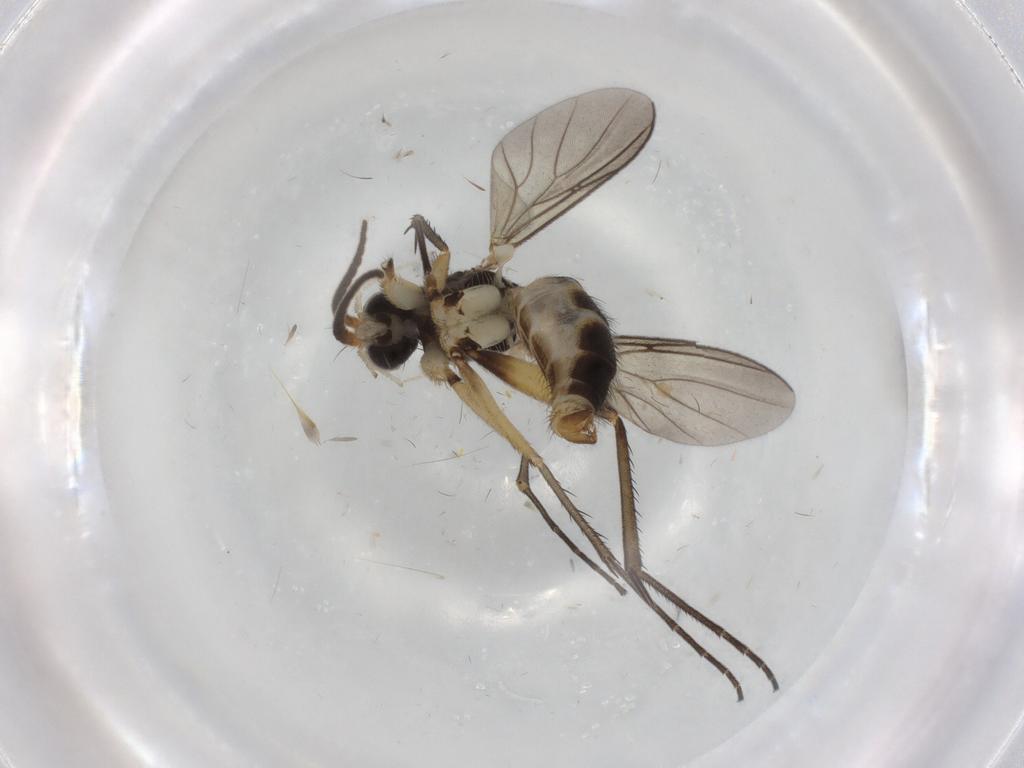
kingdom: Animalia
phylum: Arthropoda
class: Insecta
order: Diptera
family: Chironomidae
